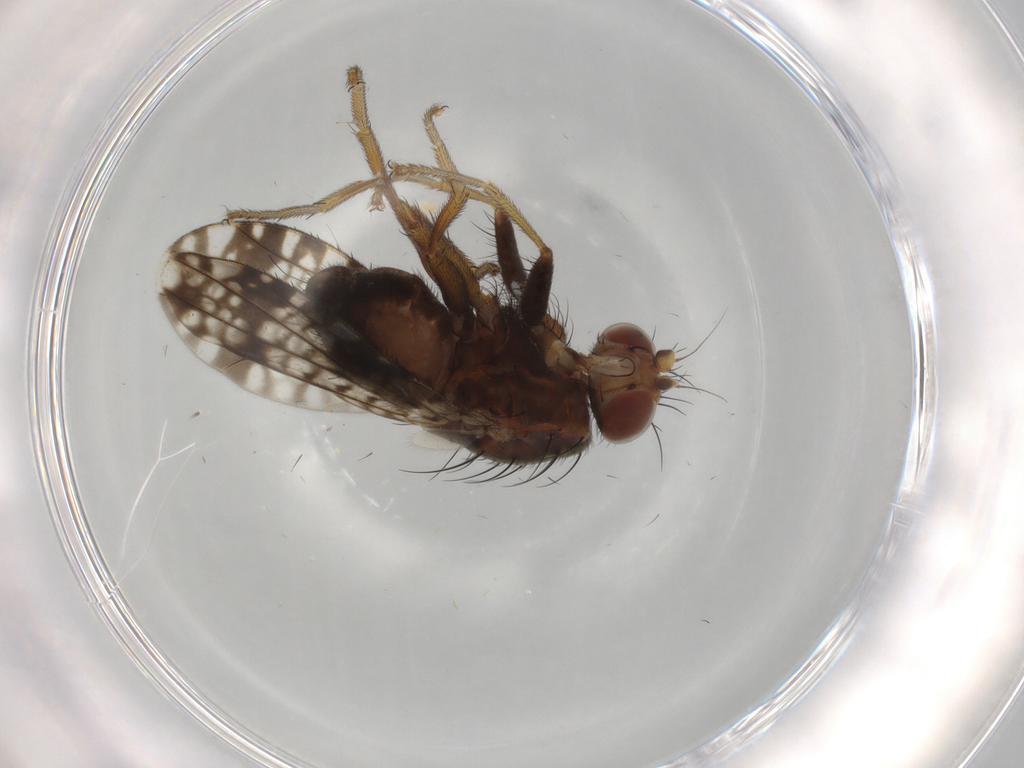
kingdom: Animalia
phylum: Arthropoda
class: Insecta
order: Diptera
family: Tephritidae
